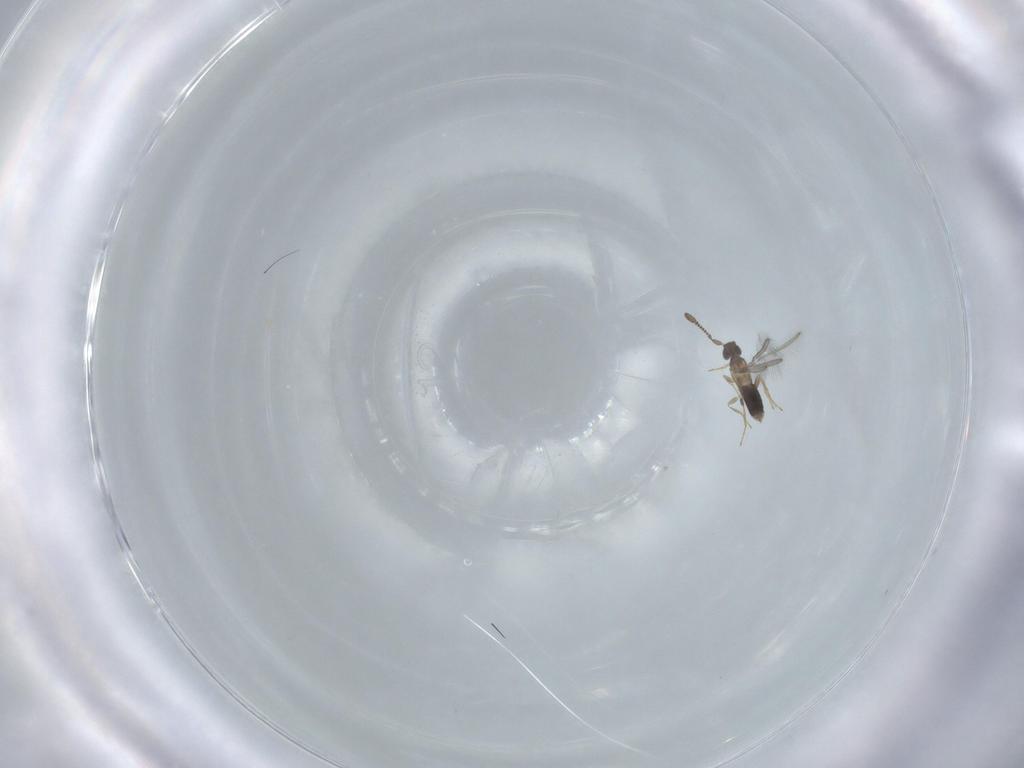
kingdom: Animalia
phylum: Arthropoda
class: Insecta
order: Hymenoptera
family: Mymaridae
